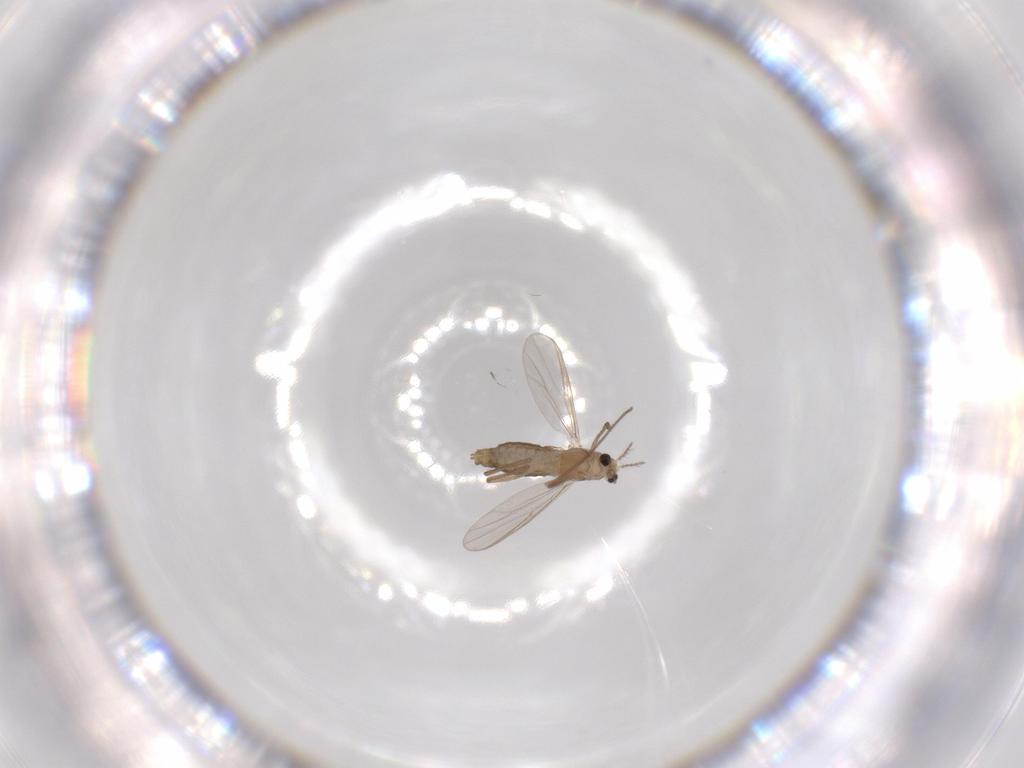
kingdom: Animalia
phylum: Arthropoda
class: Insecta
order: Diptera
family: Chironomidae
